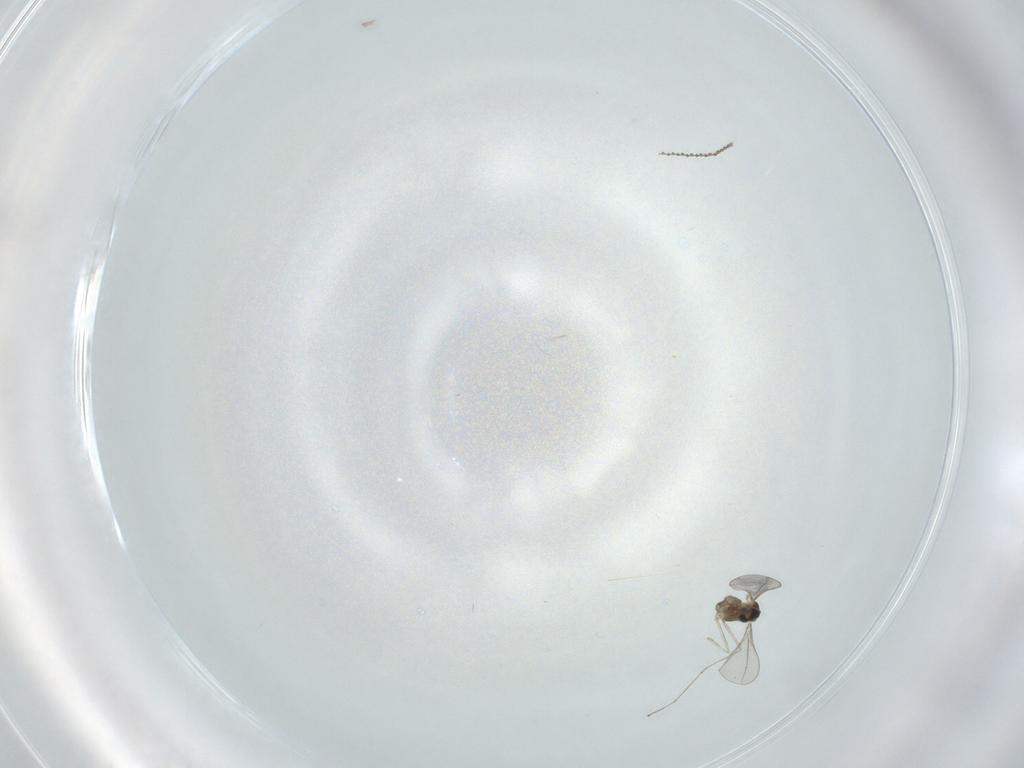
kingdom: Animalia
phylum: Arthropoda
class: Insecta
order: Diptera
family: Cecidomyiidae
